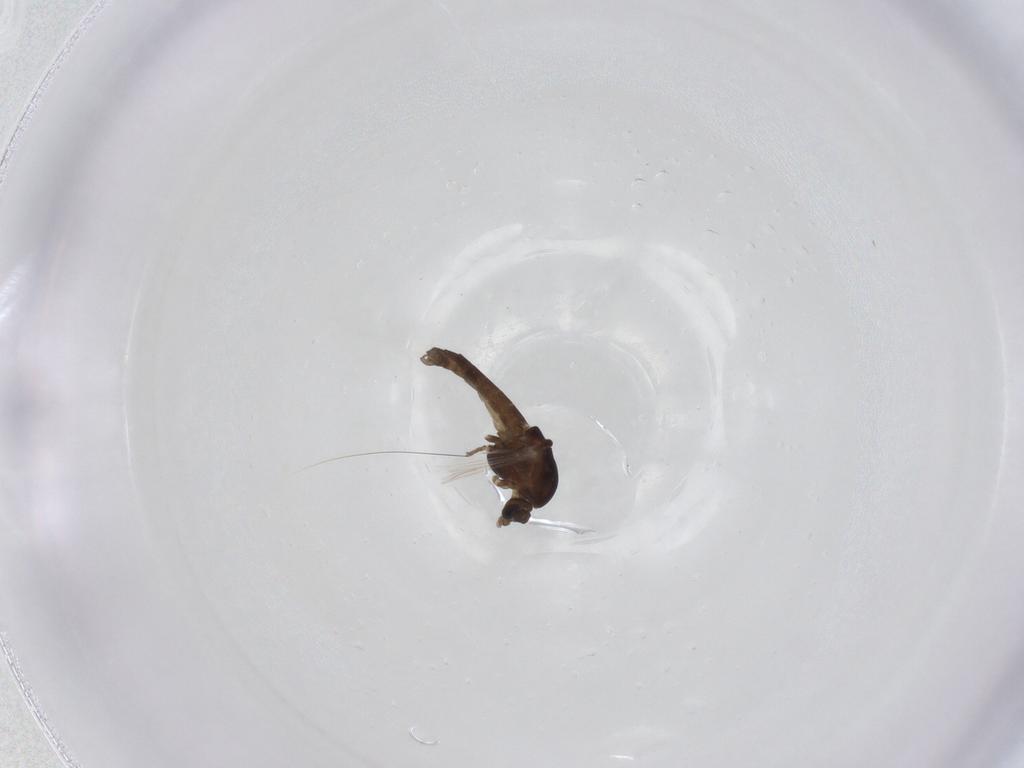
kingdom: Animalia
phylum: Arthropoda
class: Insecta
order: Diptera
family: Chironomidae
